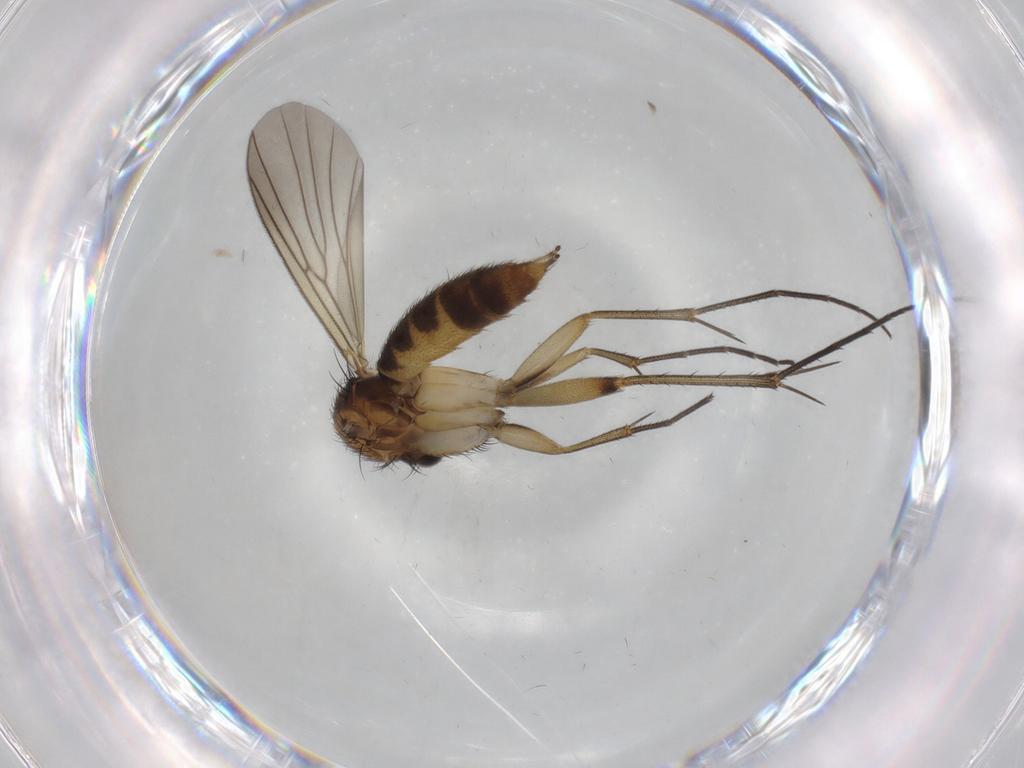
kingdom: Animalia
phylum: Arthropoda
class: Insecta
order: Diptera
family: Mycetophilidae
